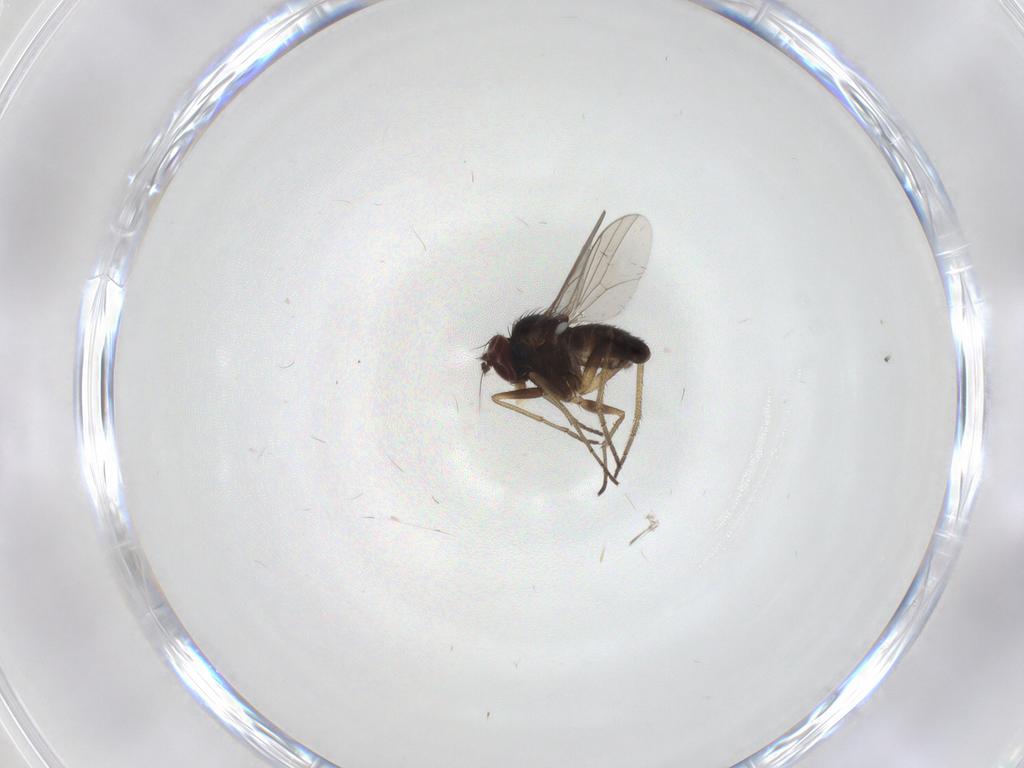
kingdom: Animalia
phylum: Arthropoda
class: Insecta
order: Diptera
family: Dolichopodidae
